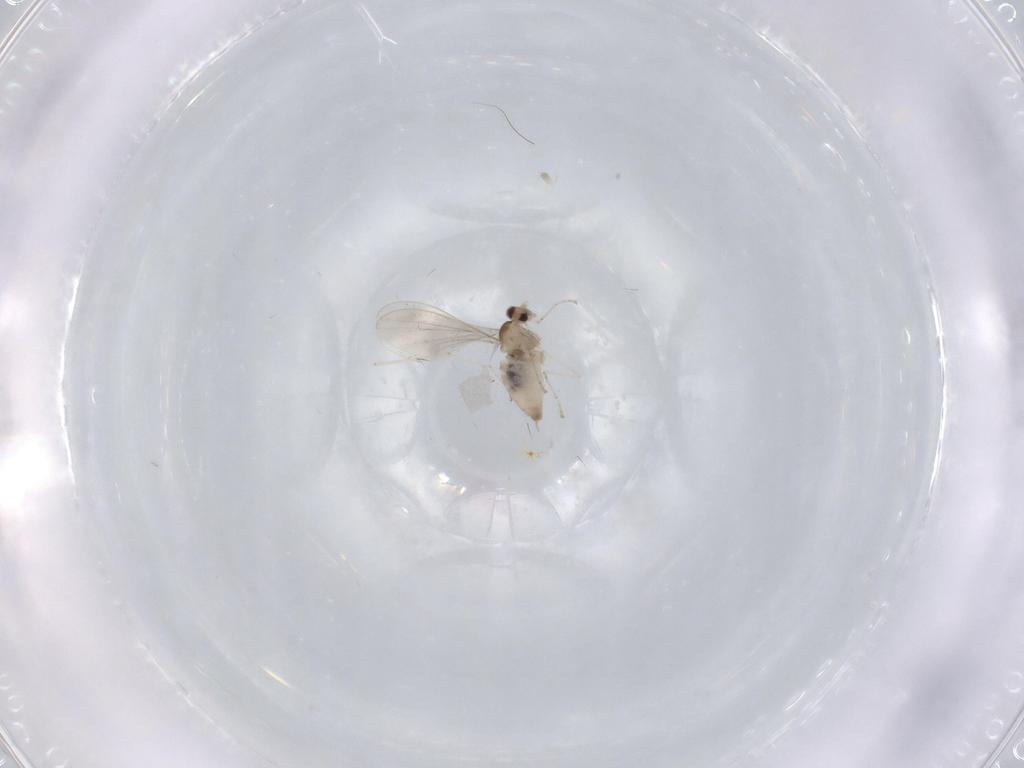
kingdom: Animalia
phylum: Arthropoda
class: Insecta
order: Diptera
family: Cecidomyiidae
